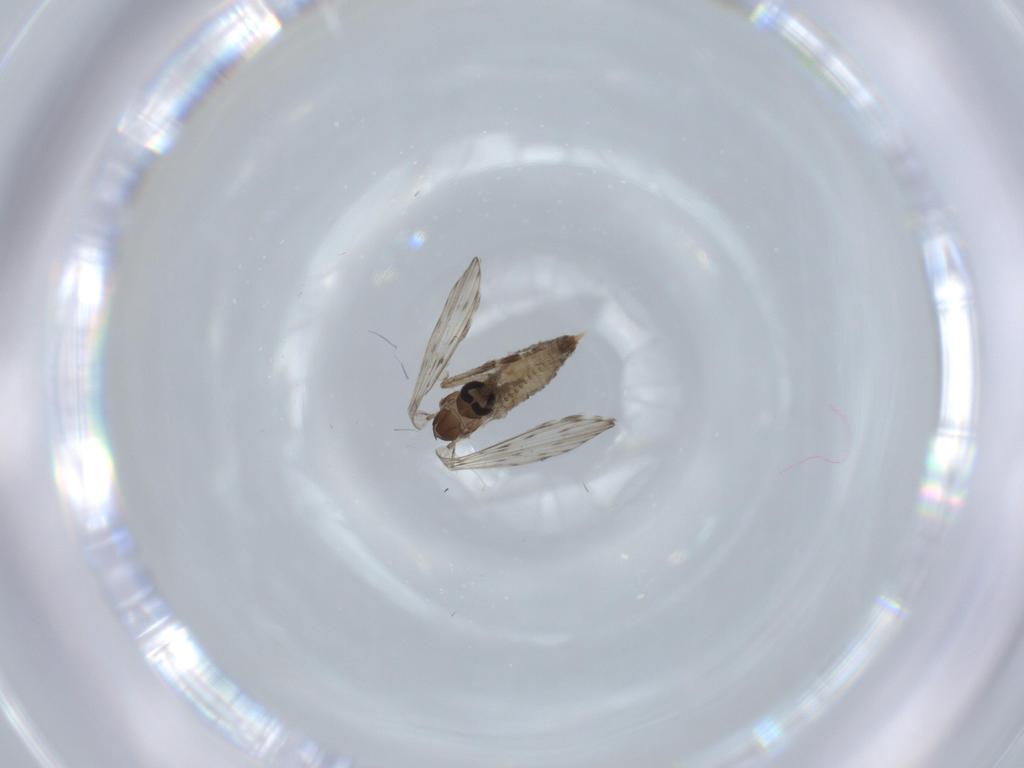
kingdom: Animalia
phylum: Arthropoda
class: Insecta
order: Diptera
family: Psychodidae
